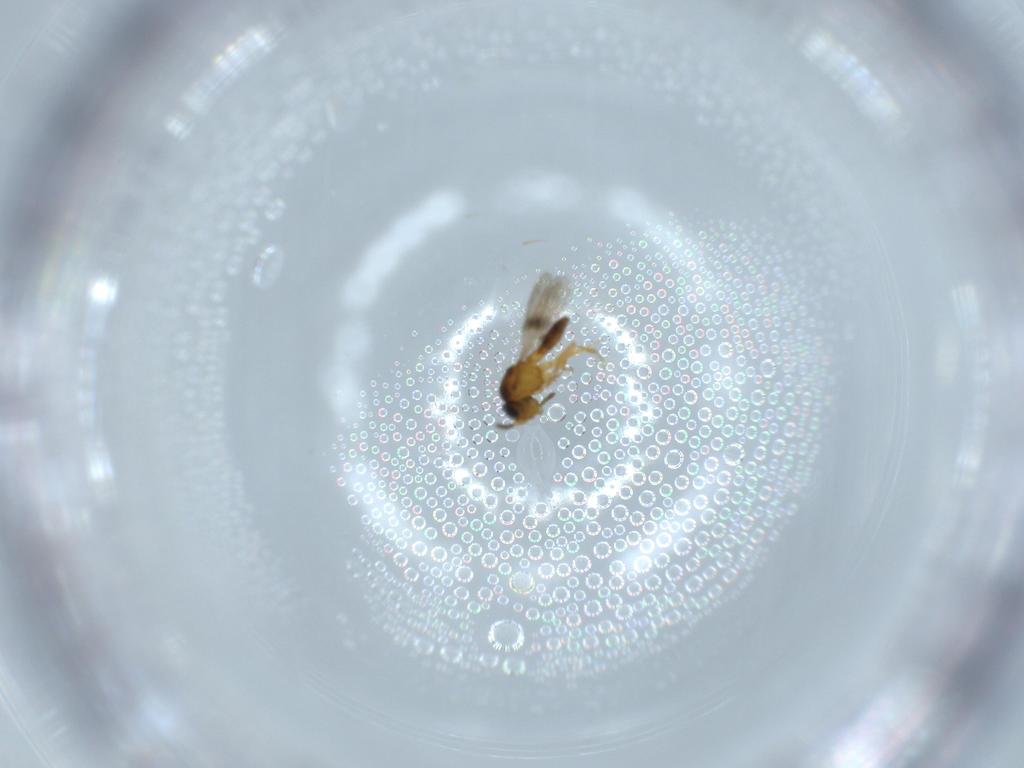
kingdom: Animalia
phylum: Arthropoda
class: Insecta
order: Hymenoptera
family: Scelionidae
